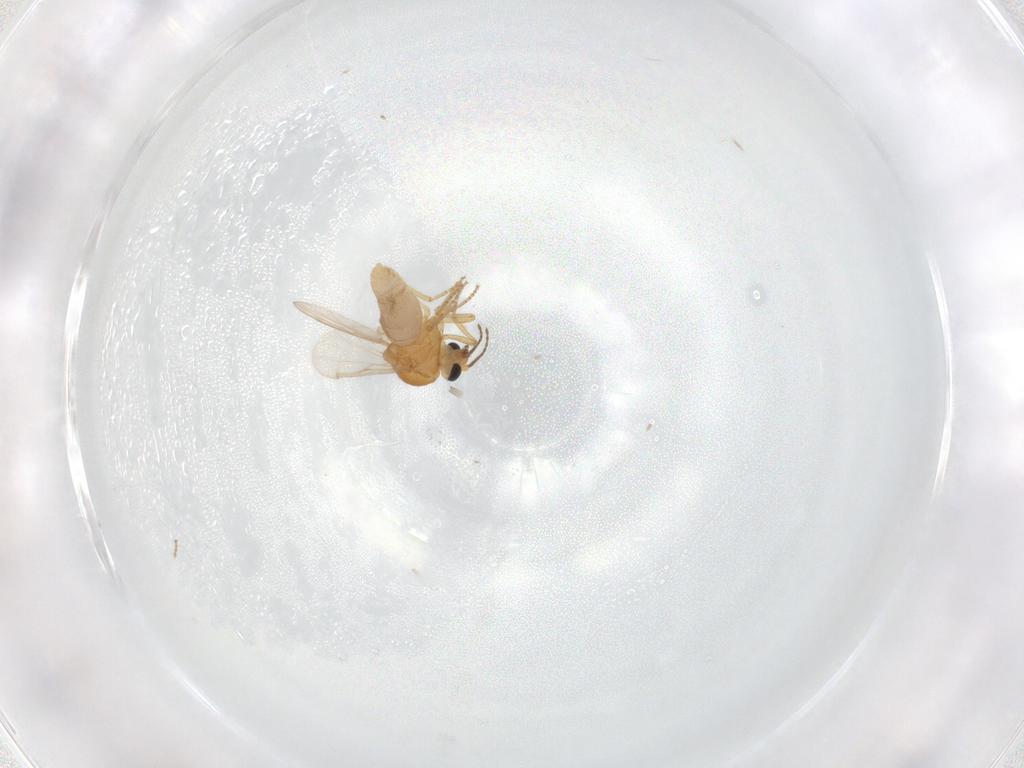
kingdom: Animalia
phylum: Arthropoda
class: Insecta
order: Diptera
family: Ceratopogonidae
